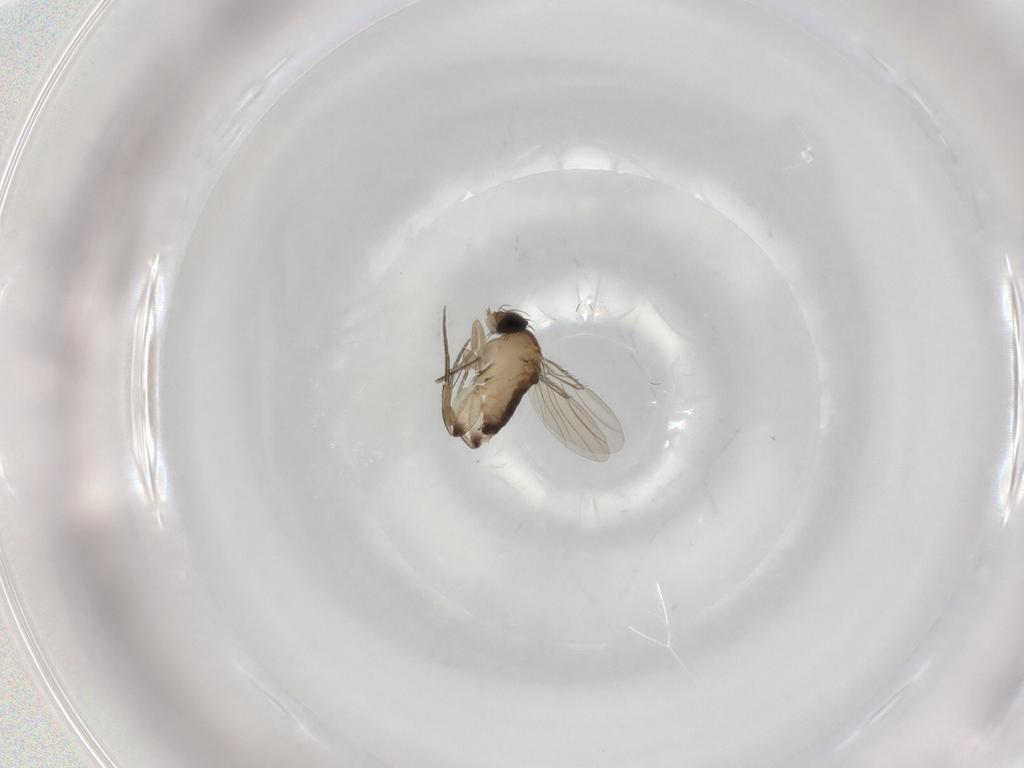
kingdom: Animalia
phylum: Arthropoda
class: Insecta
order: Diptera
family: Phoridae
